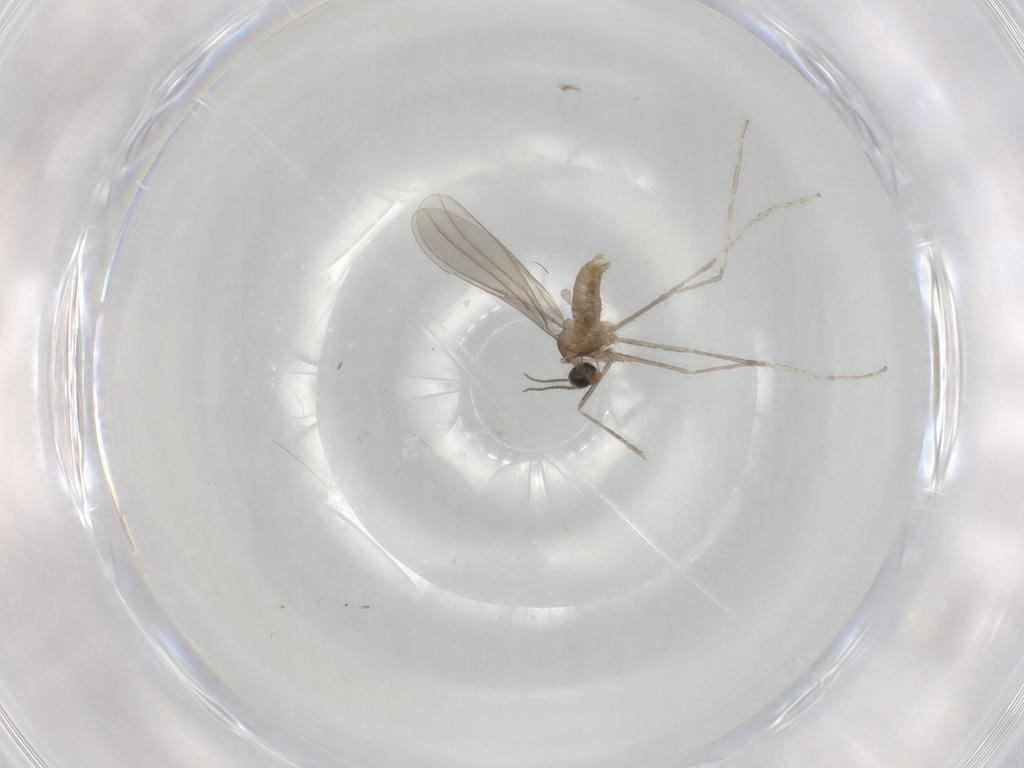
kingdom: Animalia
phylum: Arthropoda
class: Insecta
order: Diptera
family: Cecidomyiidae
